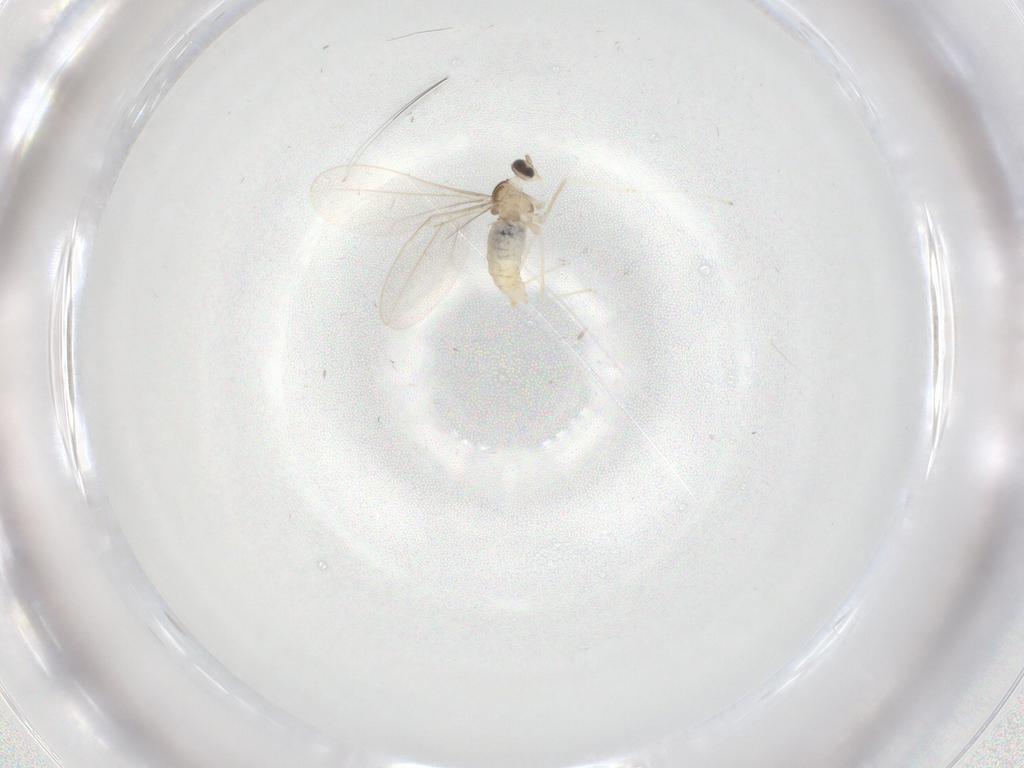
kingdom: Animalia
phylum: Arthropoda
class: Insecta
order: Diptera
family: Cecidomyiidae
